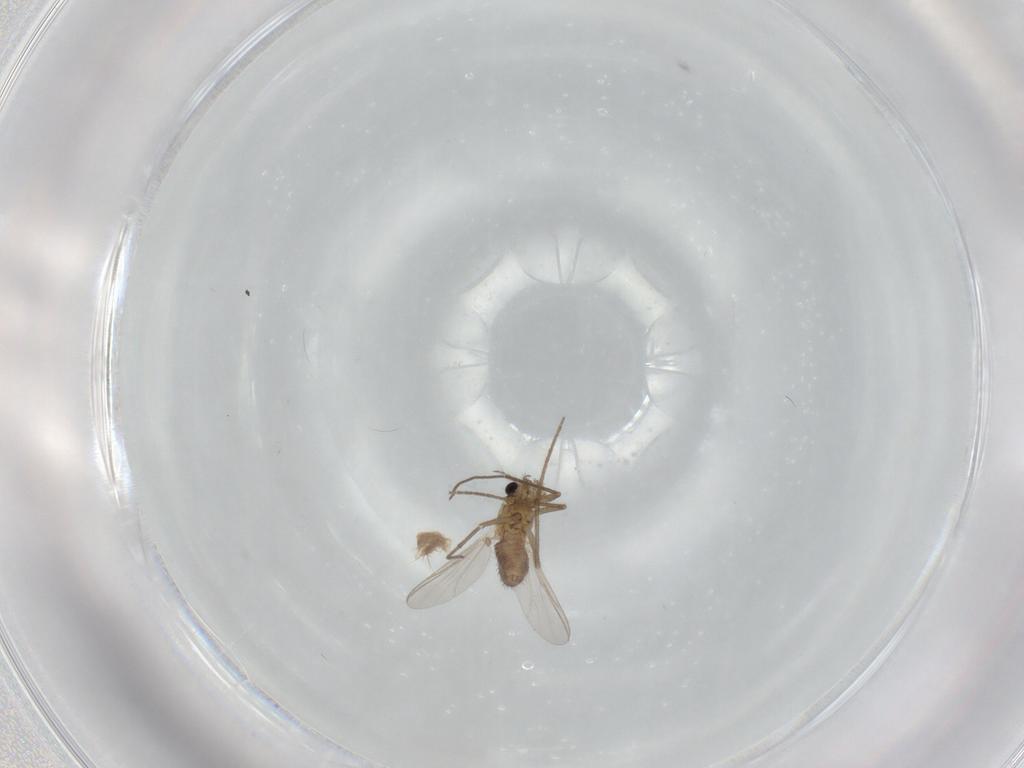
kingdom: Animalia
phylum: Arthropoda
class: Insecta
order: Diptera
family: Chironomidae
